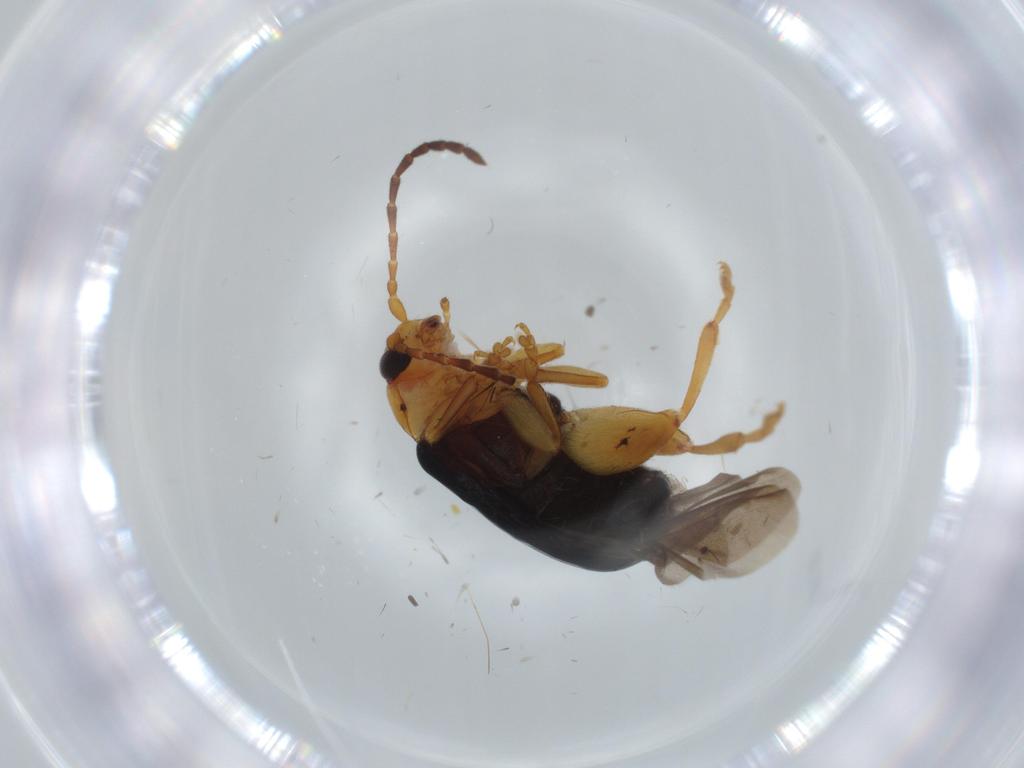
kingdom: Animalia
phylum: Arthropoda
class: Insecta
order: Coleoptera
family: Chrysomelidae
